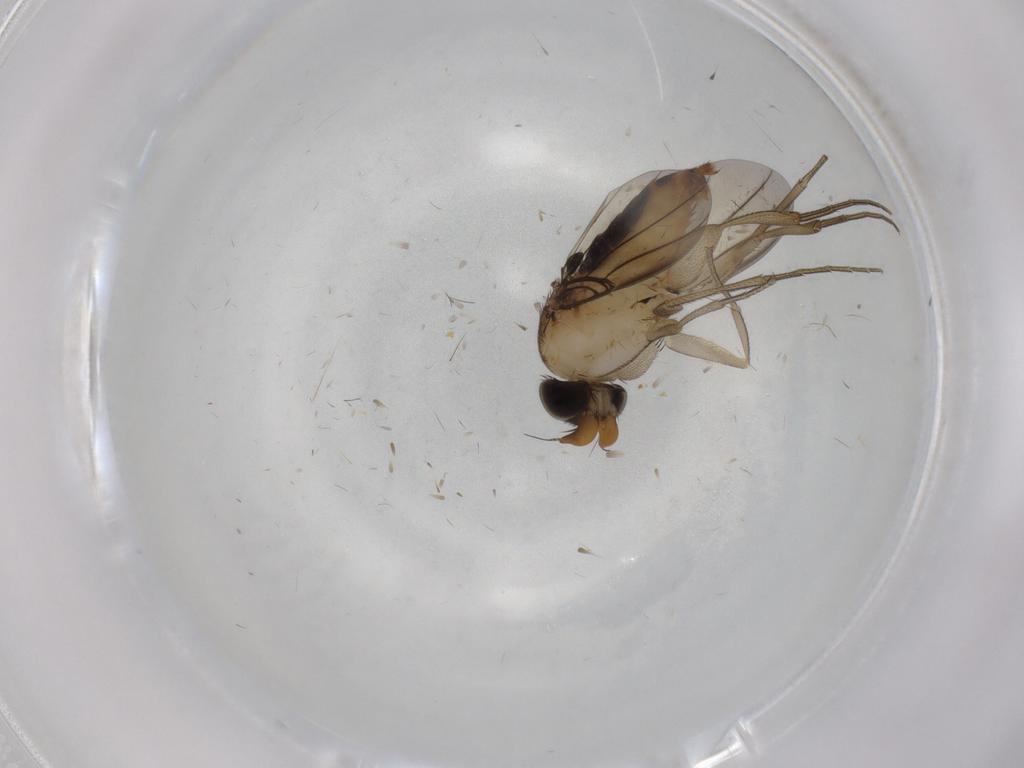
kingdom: Animalia
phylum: Arthropoda
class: Insecta
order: Diptera
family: Phoridae
